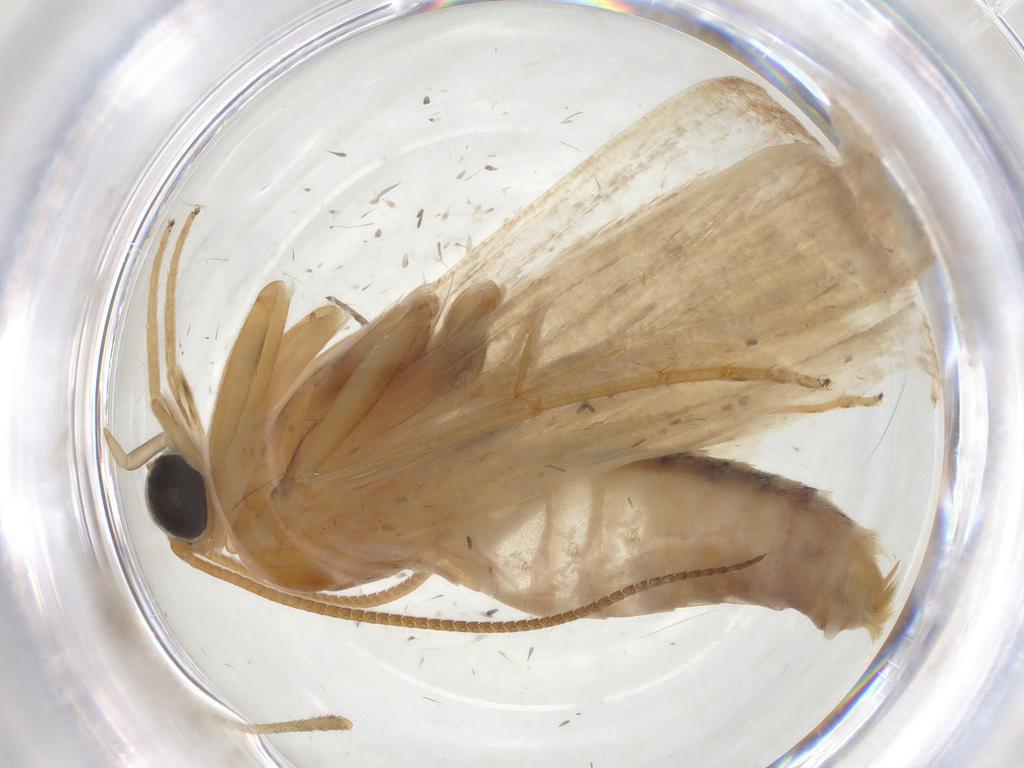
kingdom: Animalia
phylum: Arthropoda
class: Insecta
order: Lepidoptera
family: Crambidae
